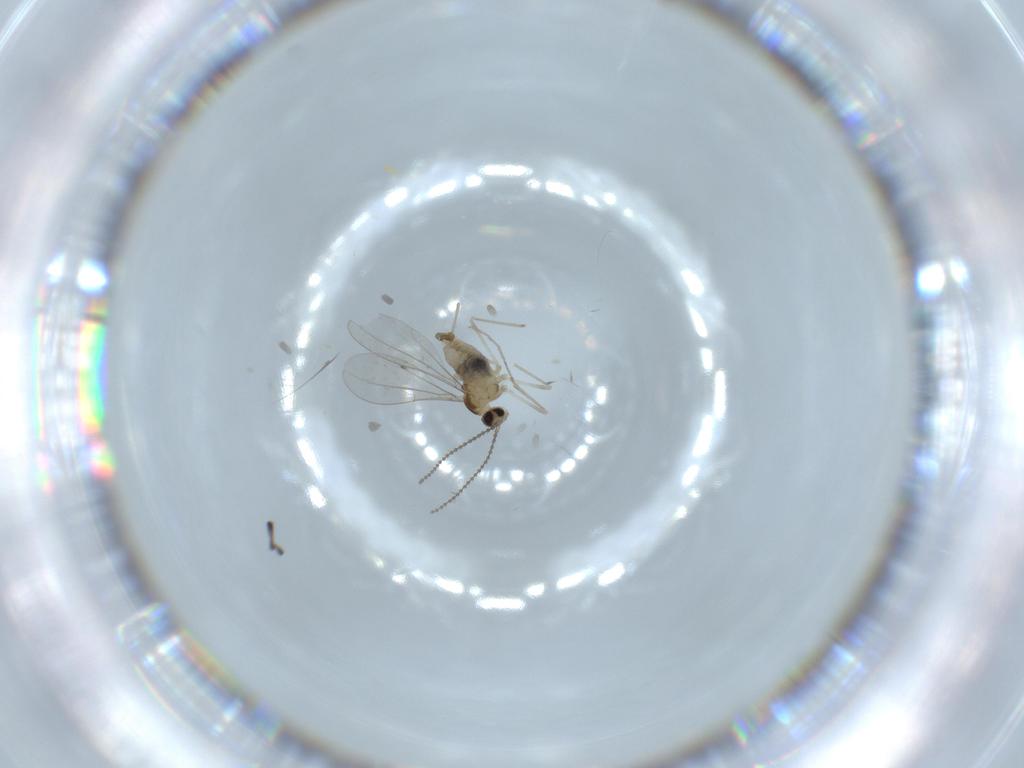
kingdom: Animalia
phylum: Arthropoda
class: Insecta
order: Diptera
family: Cecidomyiidae
